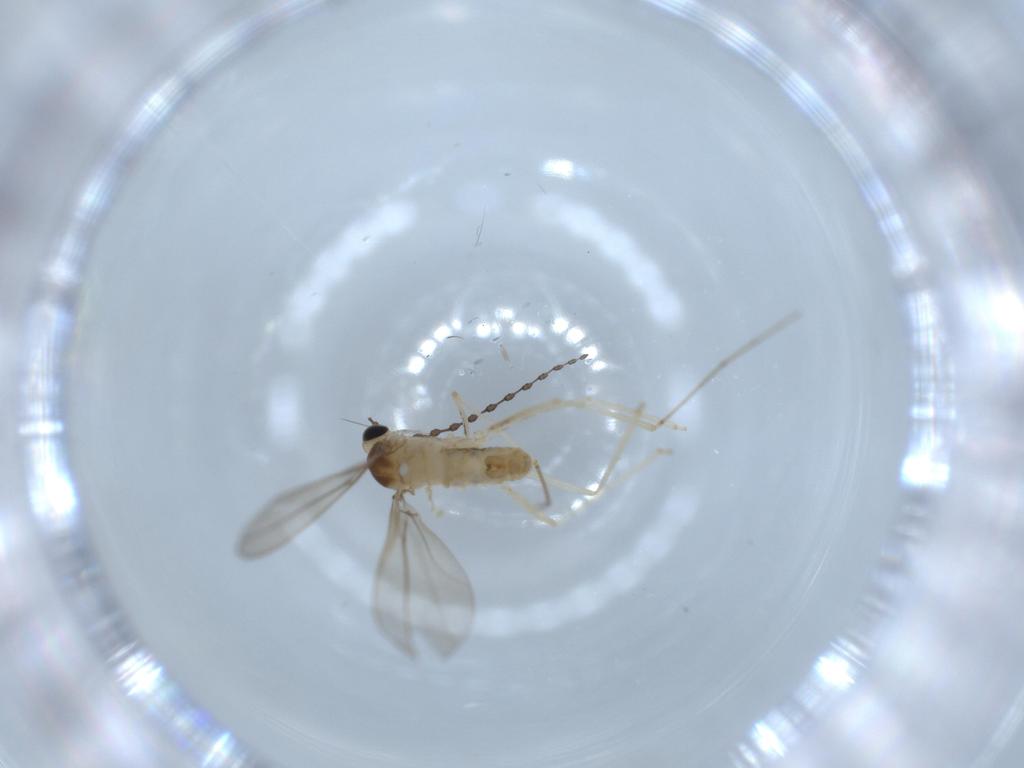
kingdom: Animalia
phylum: Arthropoda
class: Insecta
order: Diptera
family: Cecidomyiidae
